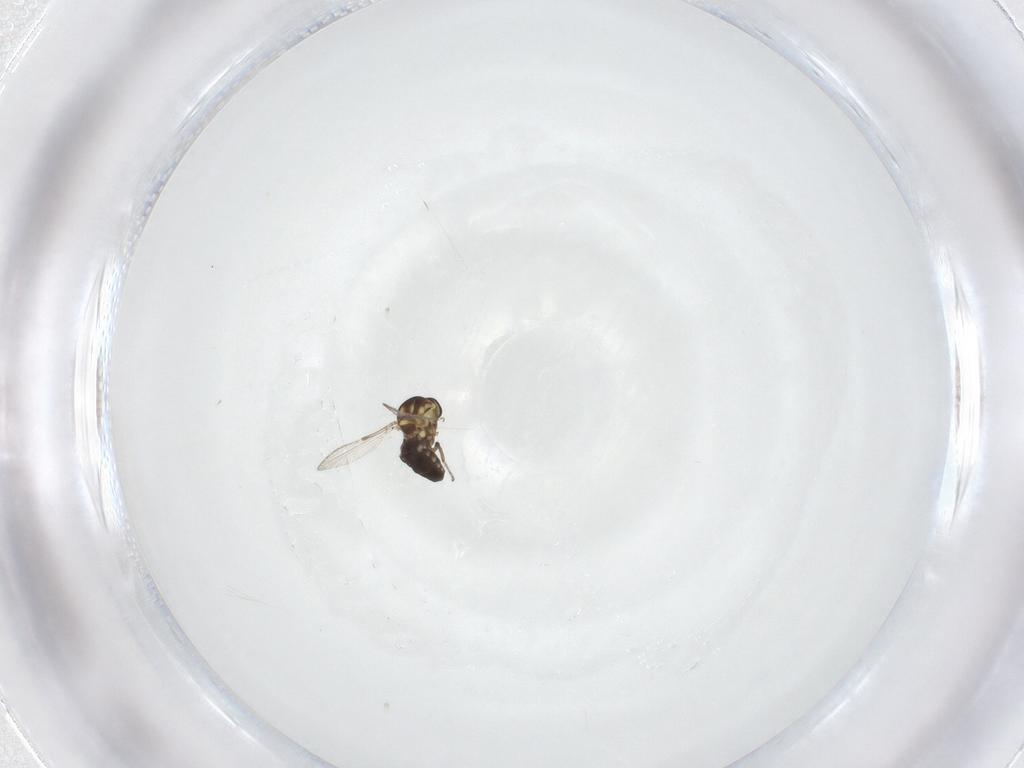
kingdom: Animalia
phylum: Arthropoda
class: Insecta
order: Diptera
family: Ceratopogonidae
